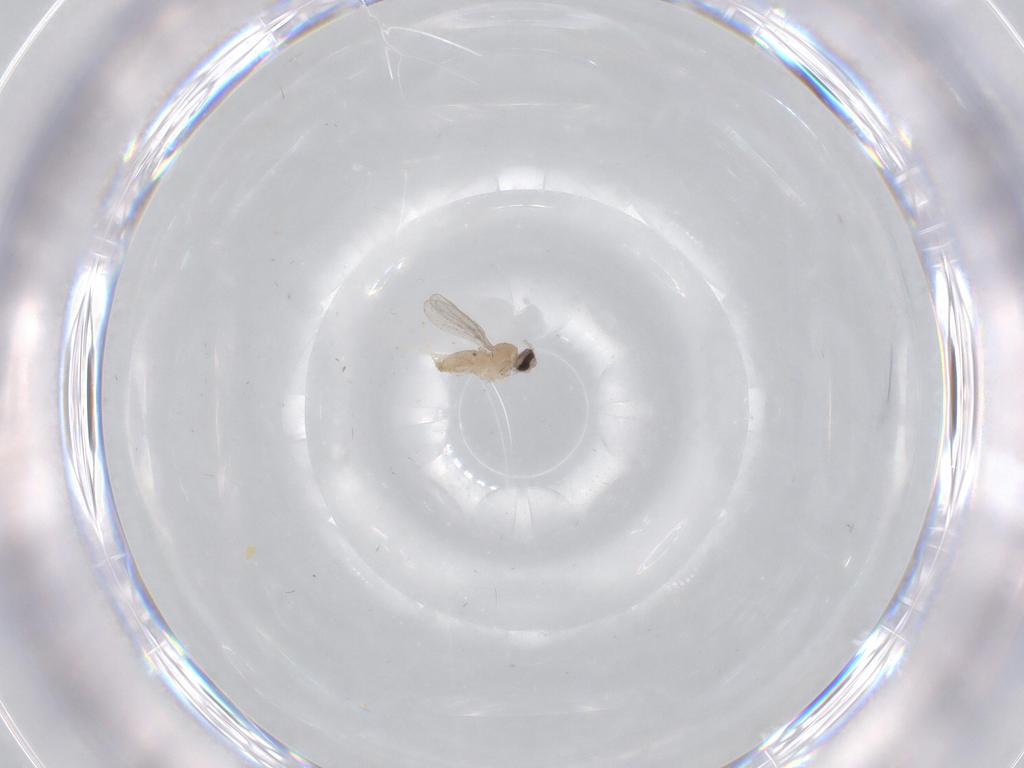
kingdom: Animalia
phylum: Arthropoda
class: Insecta
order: Diptera
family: Cecidomyiidae
